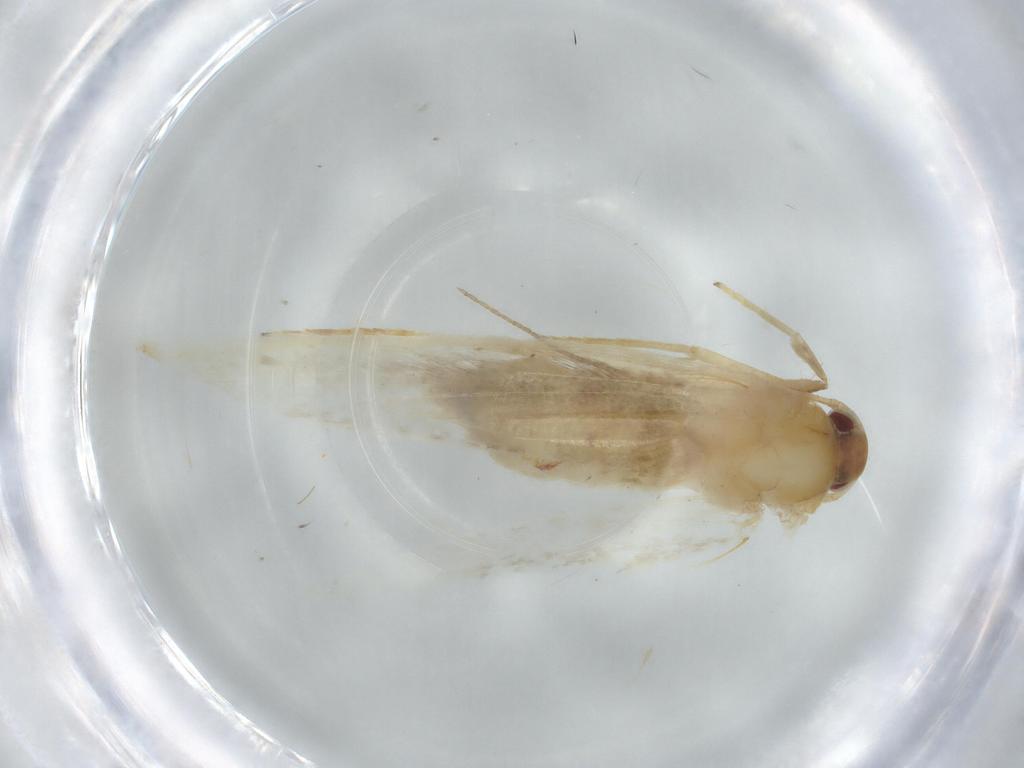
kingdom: Animalia
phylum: Arthropoda
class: Insecta
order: Lepidoptera
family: Cosmopterigidae
